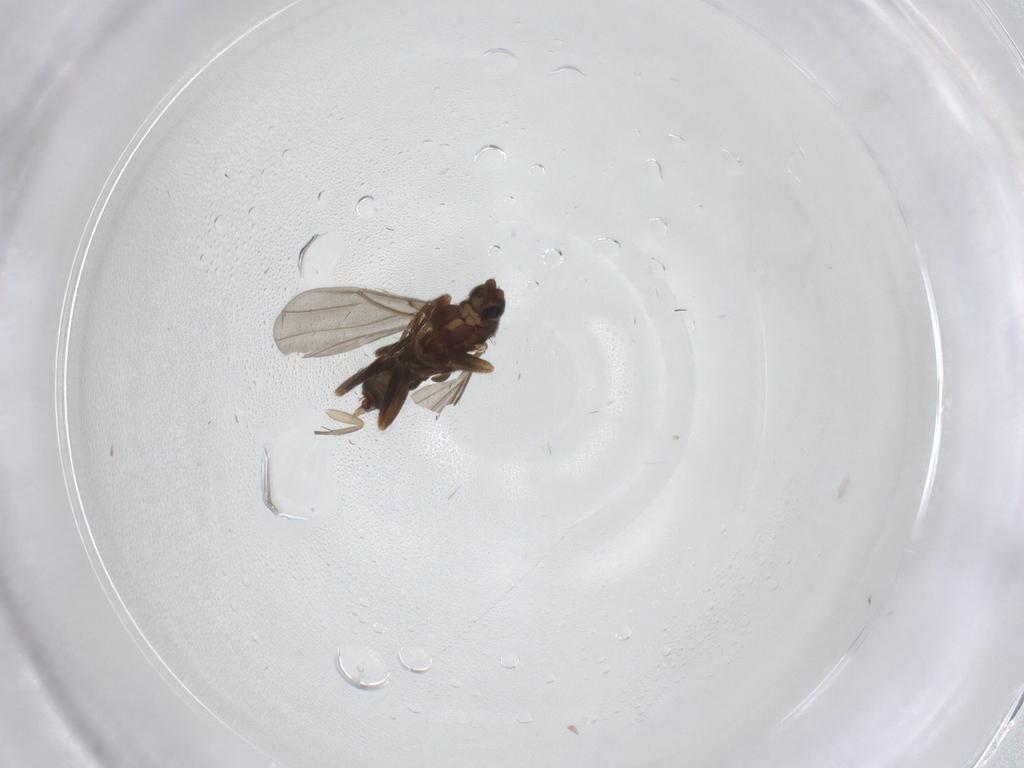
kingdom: Animalia
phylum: Arthropoda
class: Insecta
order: Diptera
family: Phoridae
